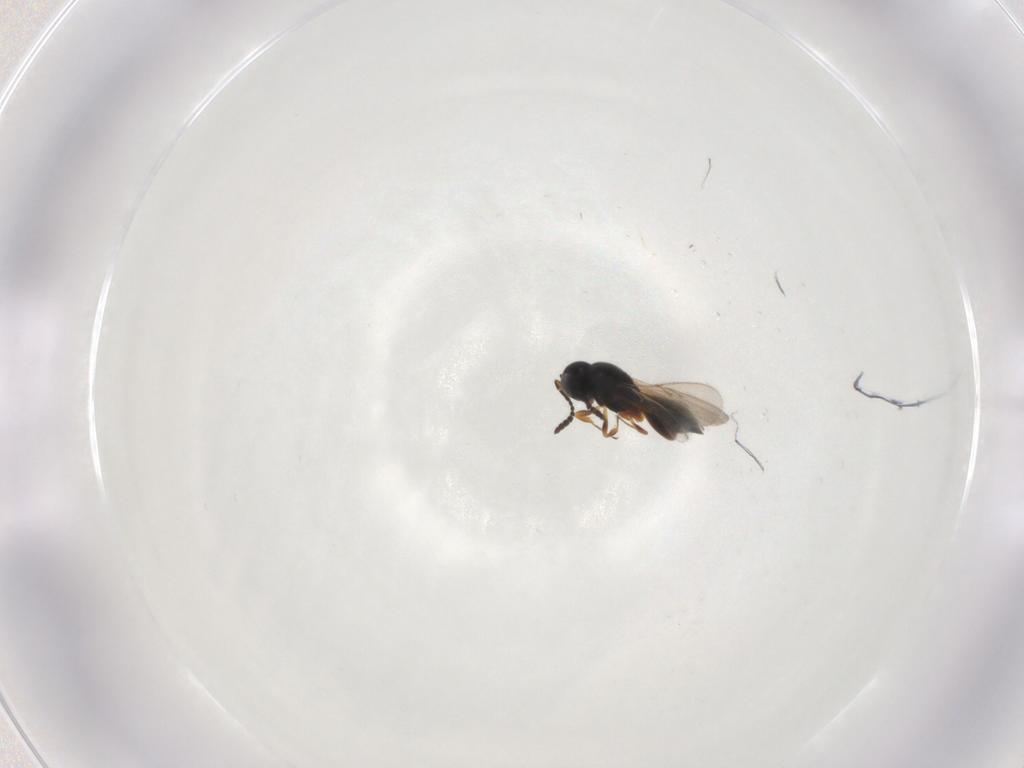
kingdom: Animalia
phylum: Arthropoda
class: Insecta
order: Hymenoptera
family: Scelionidae
